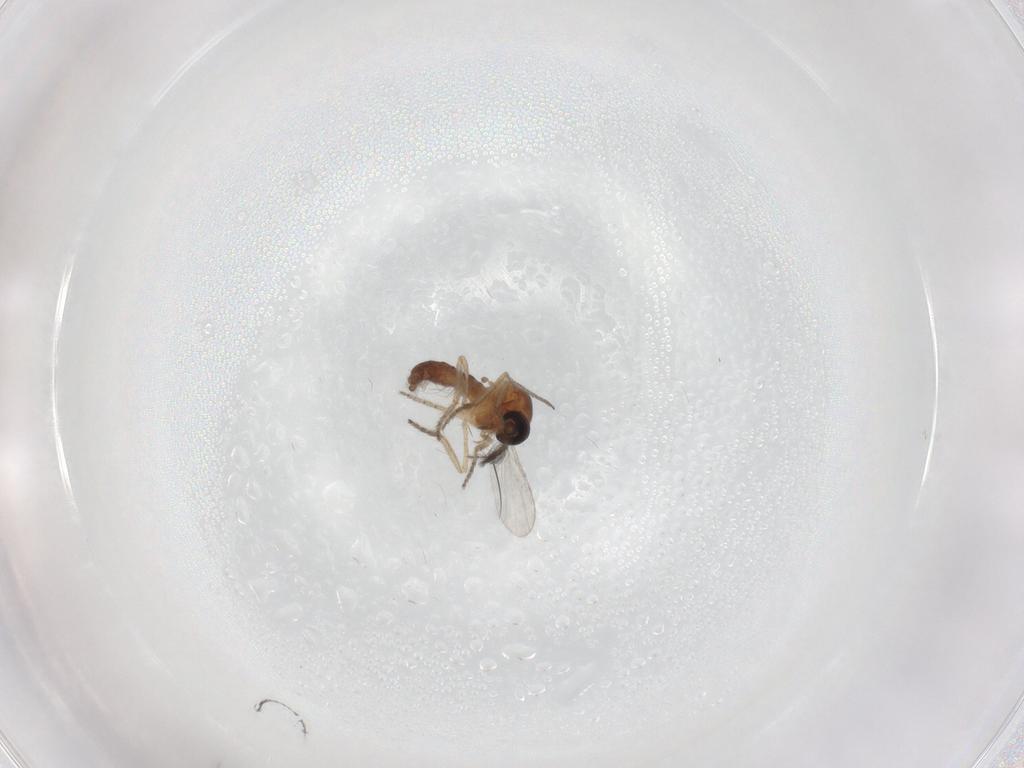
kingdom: Animalia
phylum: Arthropoda
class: Insecta
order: Diptera
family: Ceratopogonidae
